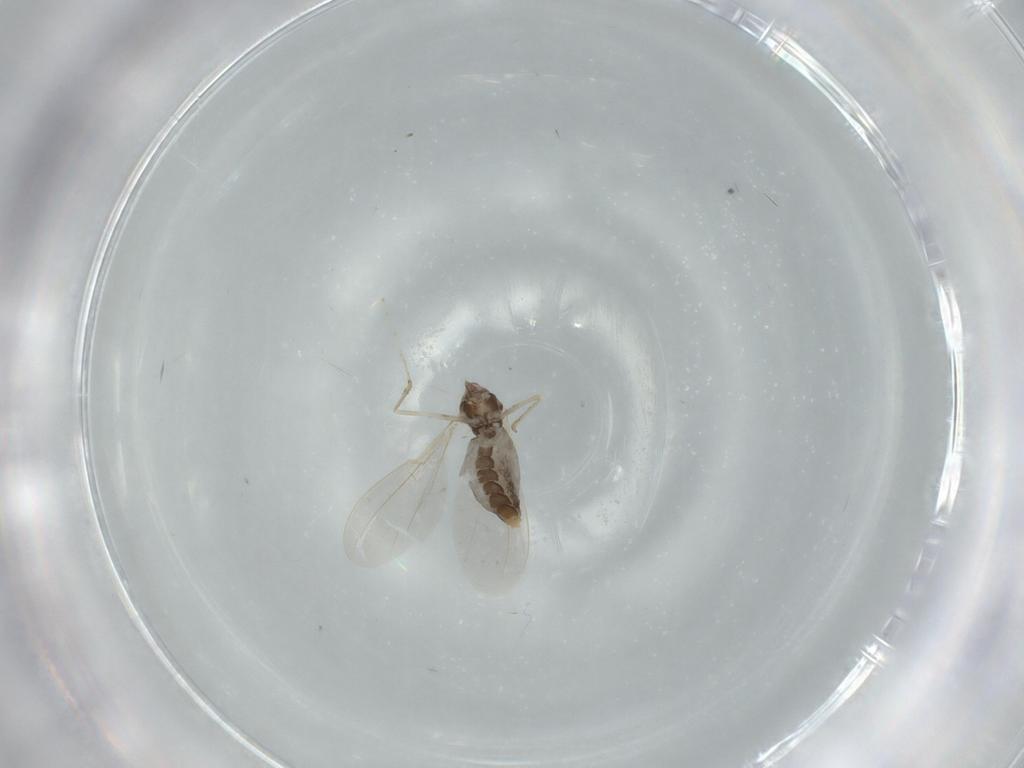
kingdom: Animalia
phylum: Arthropoda
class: Insecta
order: Diptera
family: Cecidomyiidae
